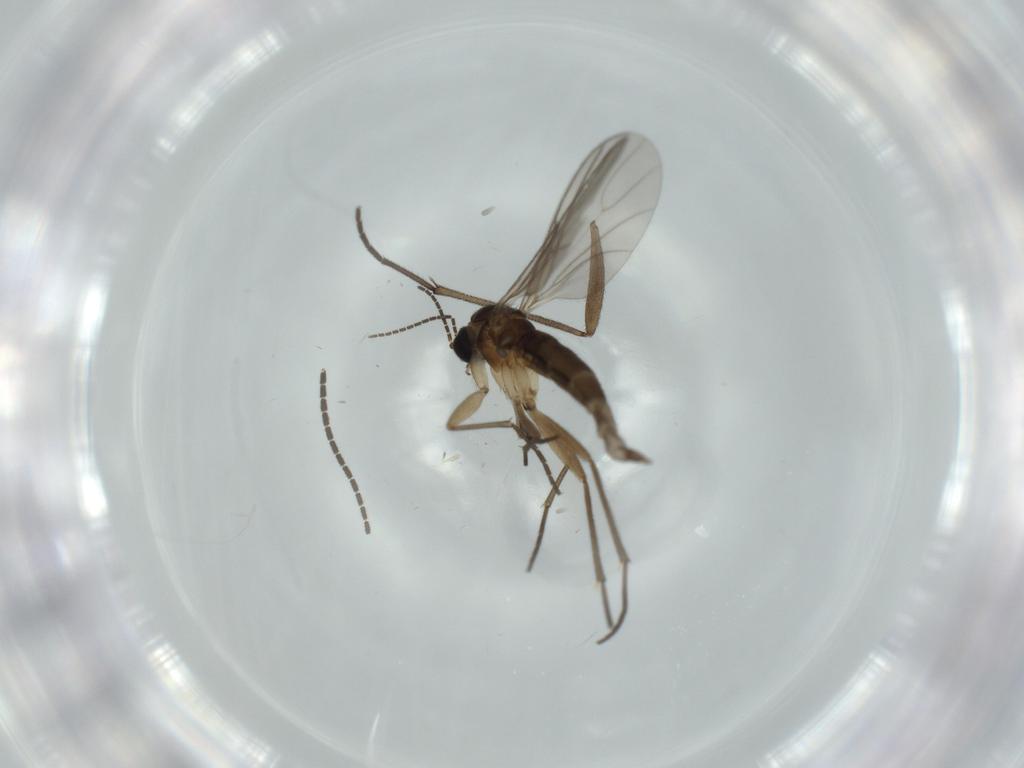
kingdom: Animalia
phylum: Arthropoda
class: Insecta
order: Diptera
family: Sciaridae
